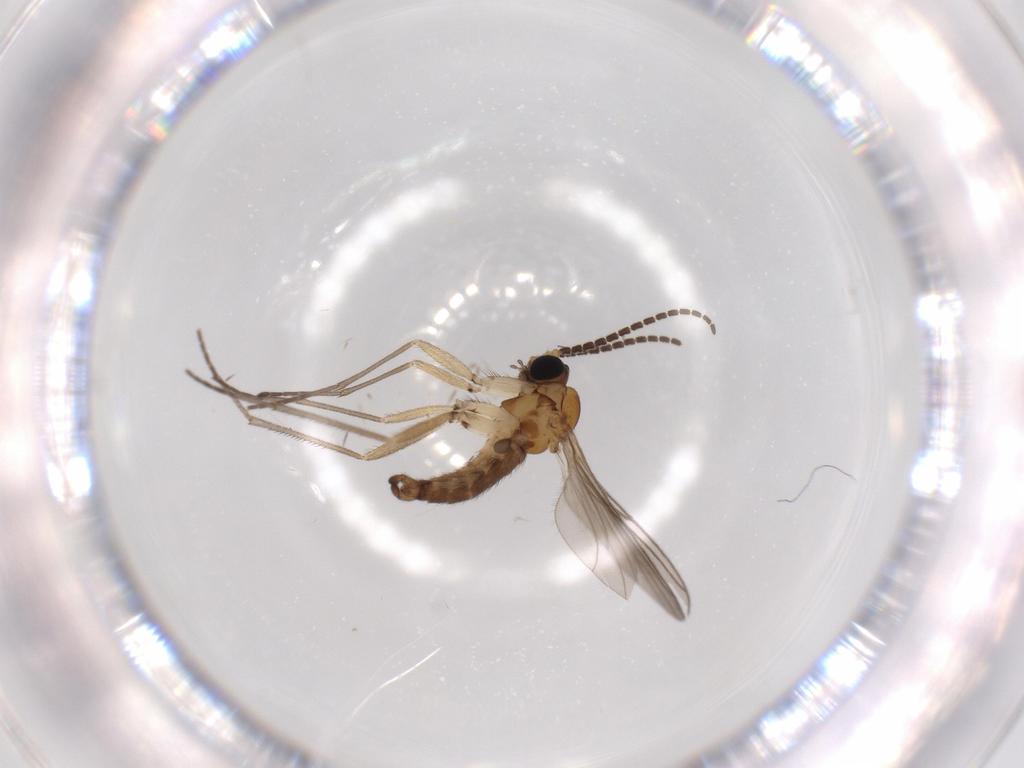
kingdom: Animalia
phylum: Arthropoda
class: Insecta
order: Diptera
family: Sciaridae
